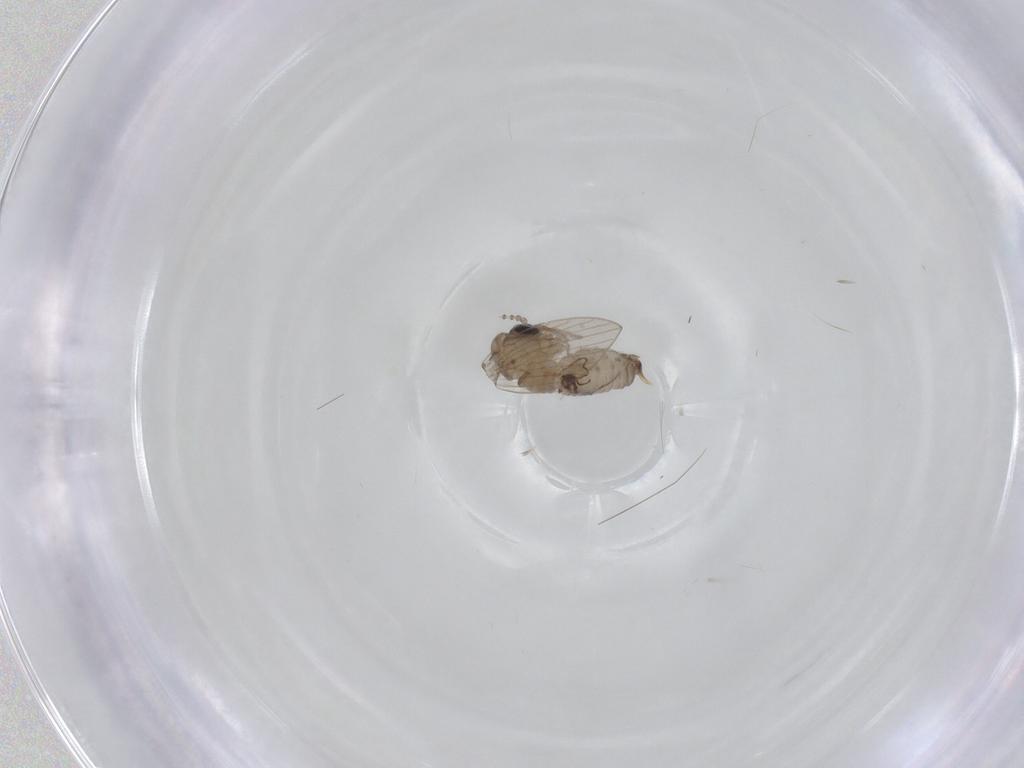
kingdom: Animalia
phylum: Arthropoda
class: Insecta
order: Diptera
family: Psychodidae
